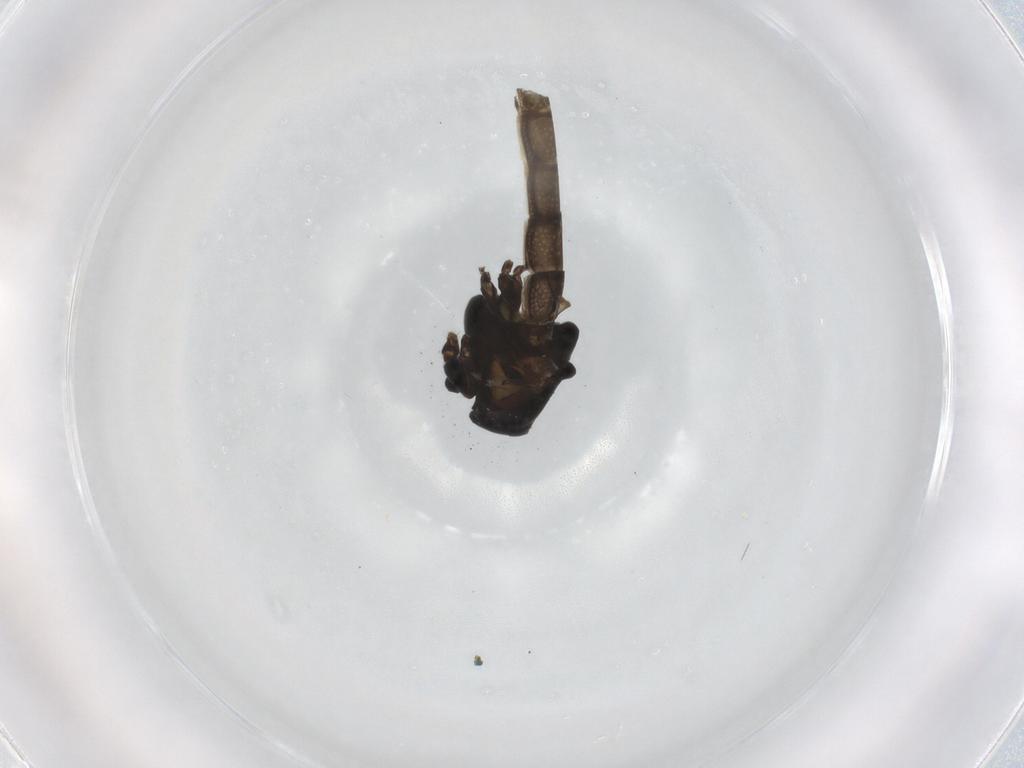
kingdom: Animalia
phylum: Arthropoda
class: Insecta
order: Diptera
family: Chironomidae
